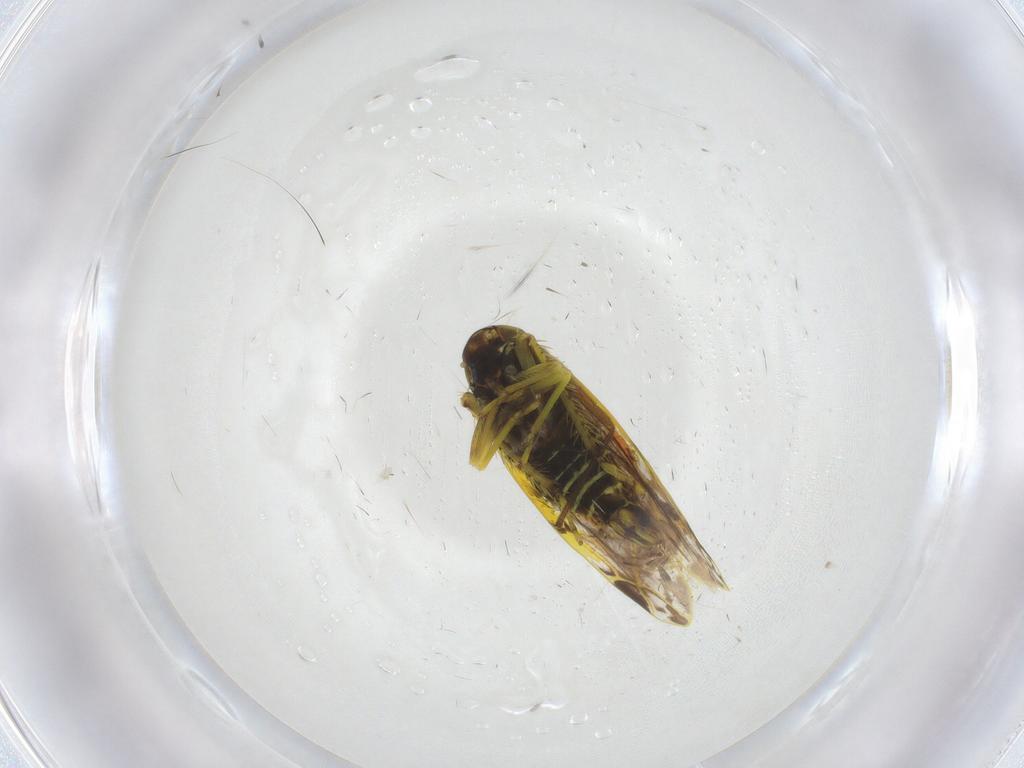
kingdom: Animalia
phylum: Arthropoda
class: Insecta
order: Hemiptera
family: Cicadellidae
